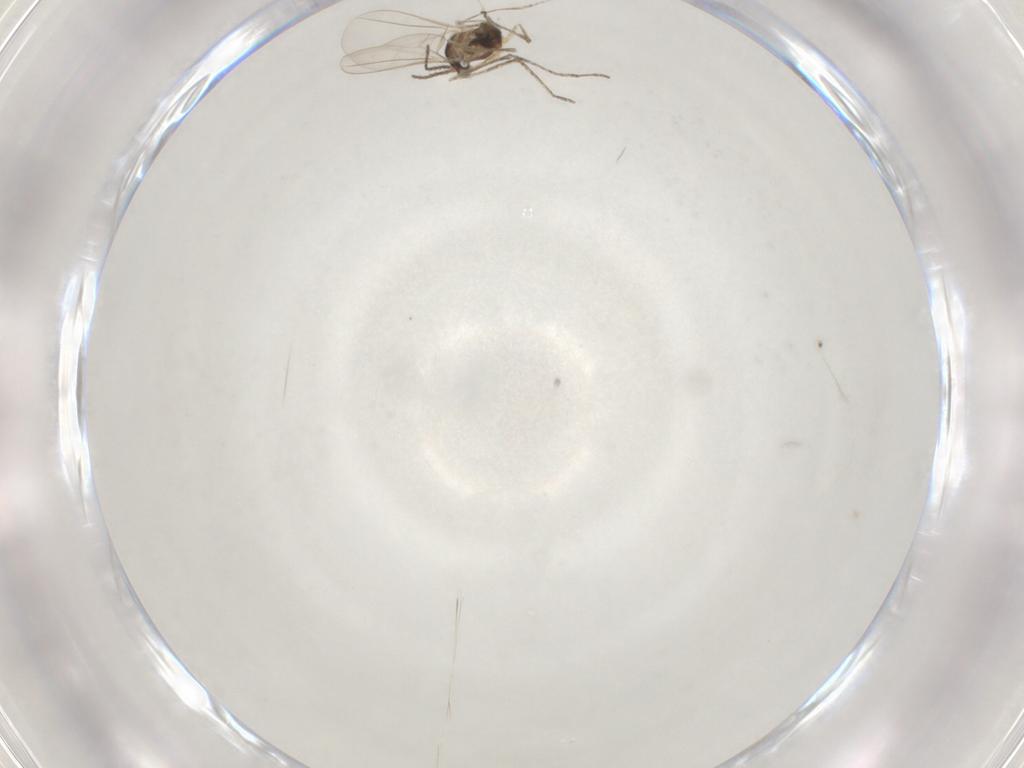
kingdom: Animalia
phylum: Arthropoda
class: Insecta
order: Diptera
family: Cecidomyiidae
